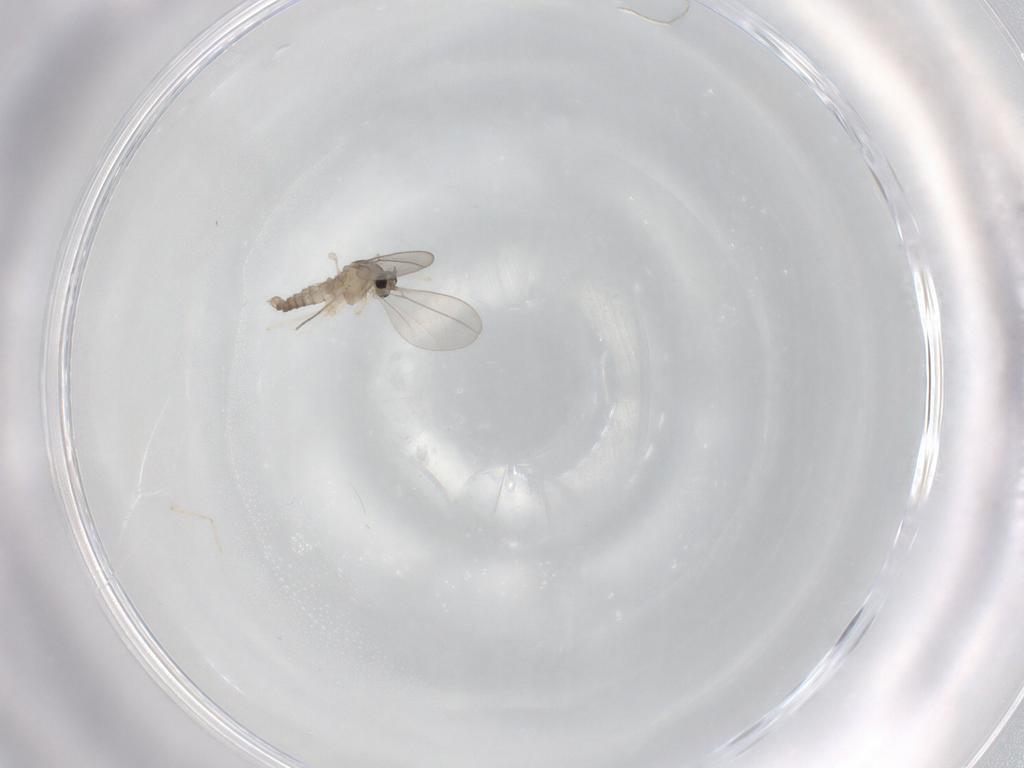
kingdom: Animalia
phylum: Arthropoda
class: Insecta
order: Diptera
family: Cecidomyiidae
